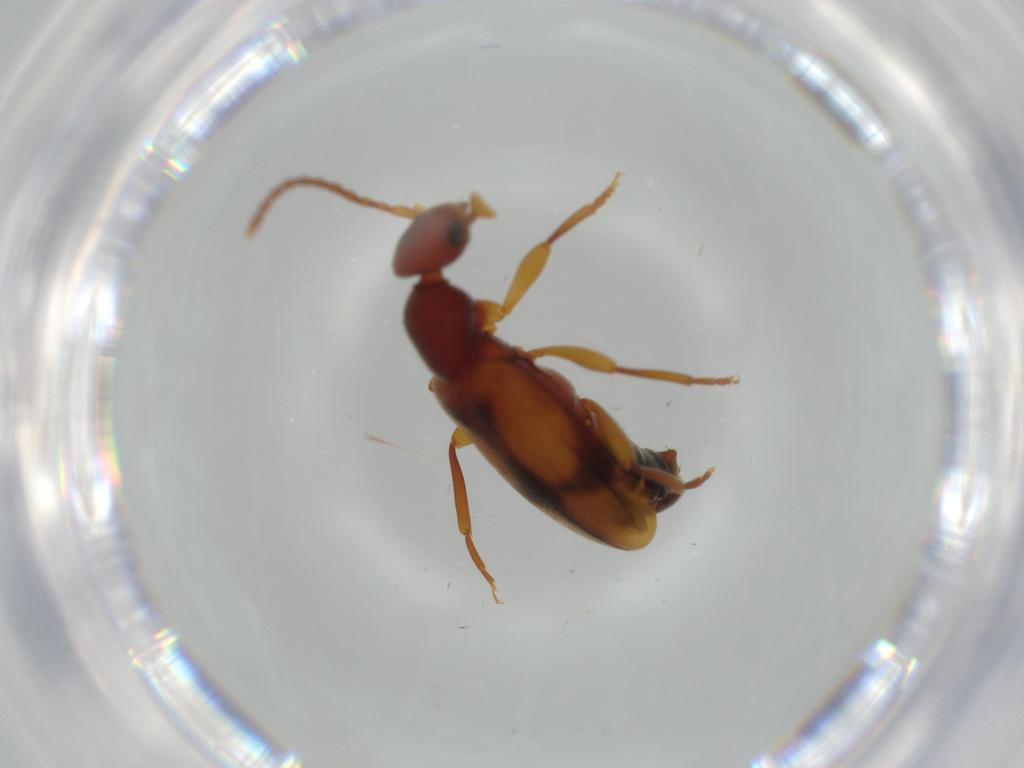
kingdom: Animalia
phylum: Arthropoda
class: Insecta
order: Coleoptera
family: Anthicidae
